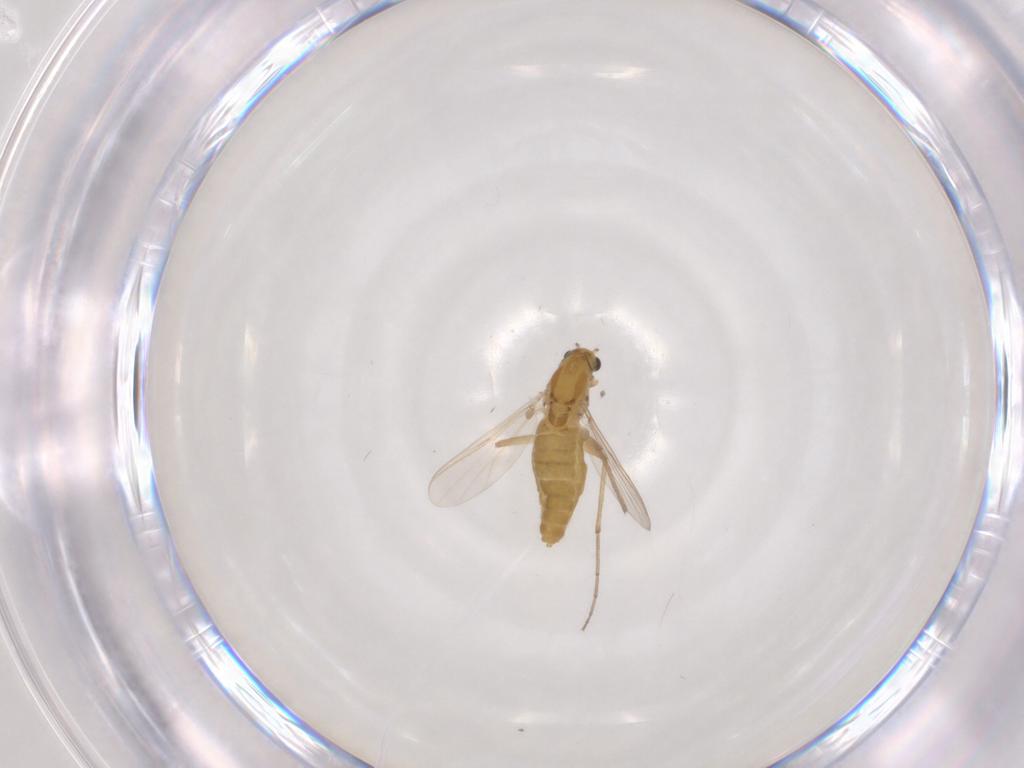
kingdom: Animalia
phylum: Arthropoda
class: Insecta
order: Diptera
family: Chironomidae
